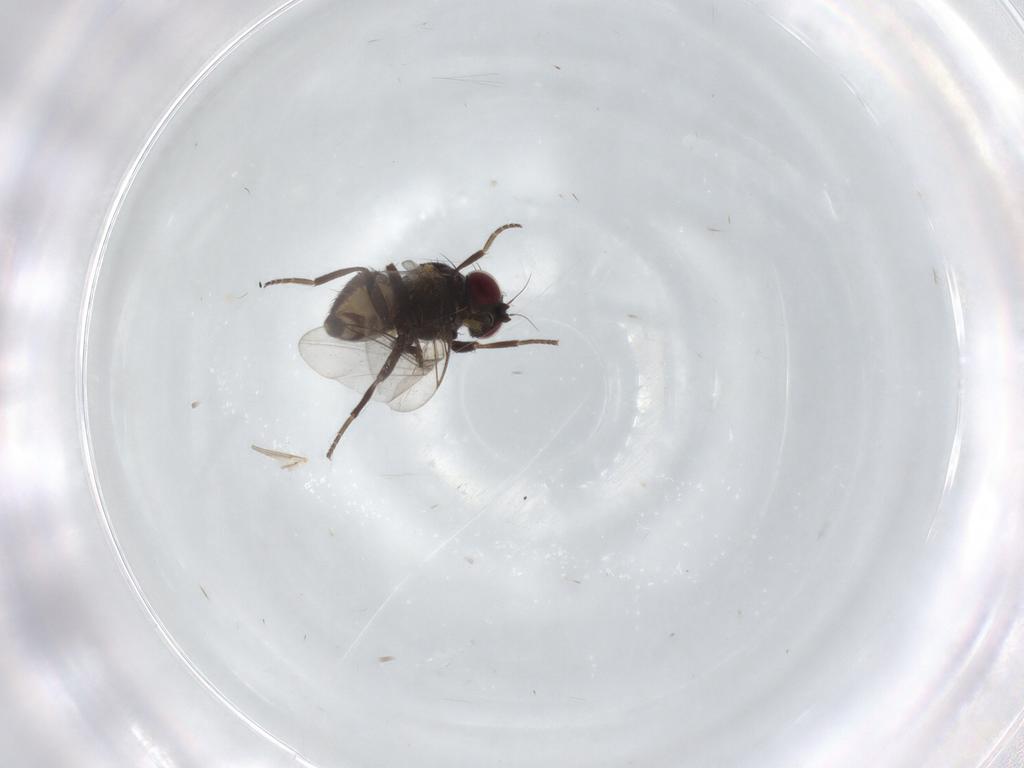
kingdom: Animalia
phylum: Arthropoda
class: Insecta
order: Diptera
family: Agromyzidae
